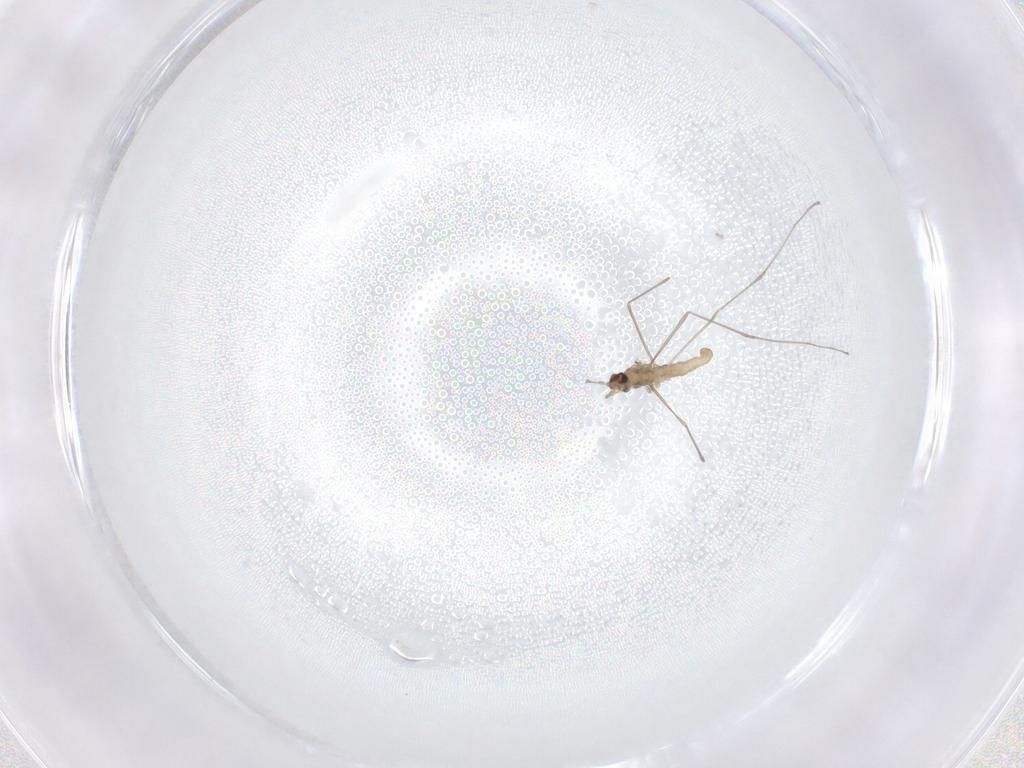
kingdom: Animalia
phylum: Arthropoda
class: Insecta
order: Diptera
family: Cecidomyiidae
